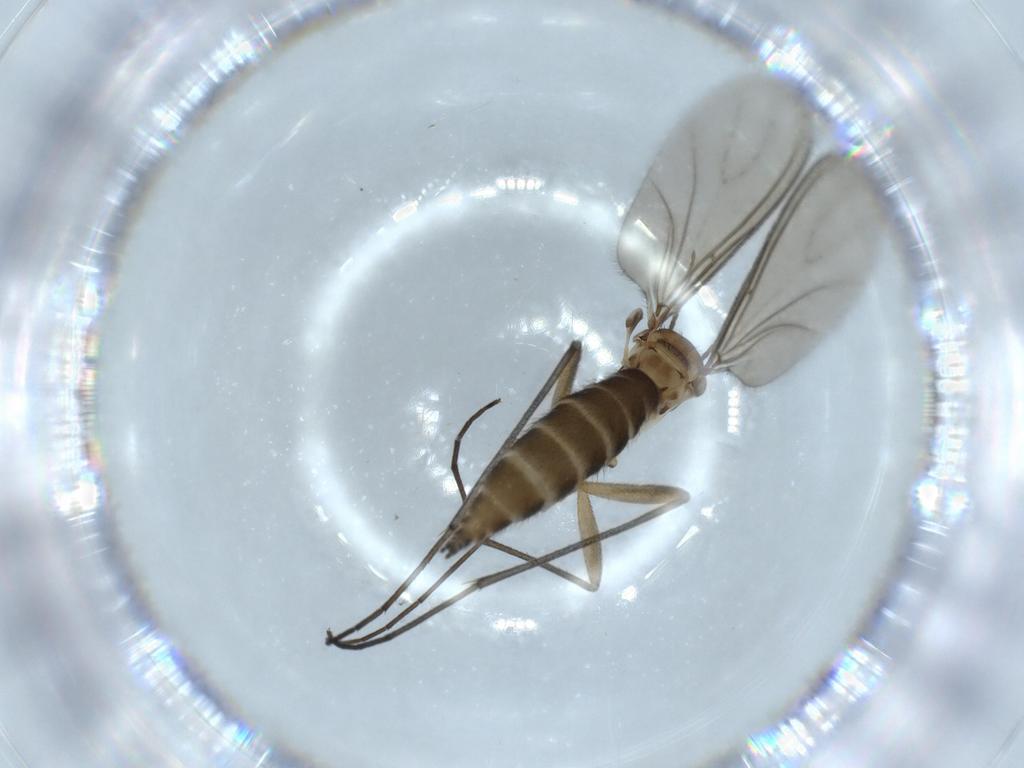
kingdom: Animalia
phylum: Arthropoda
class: Insecta
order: Diptera
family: Sciaridae
